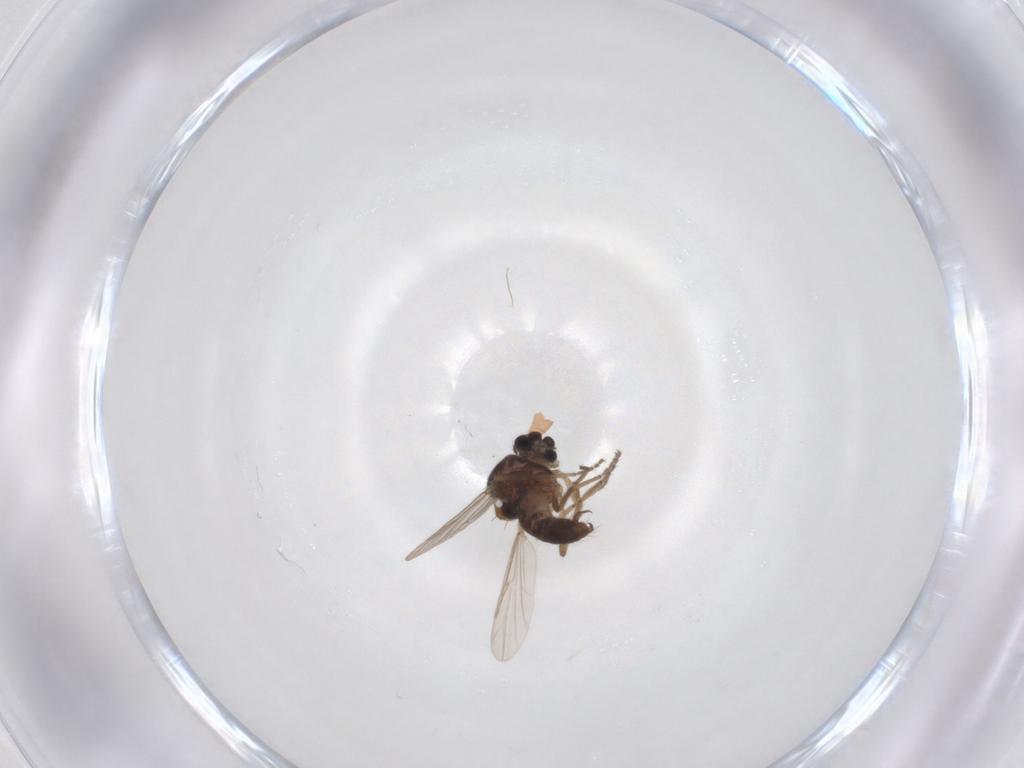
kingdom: Animalia
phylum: Arthropoda
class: Insecta
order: Diptera
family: Ceratopogonidae
